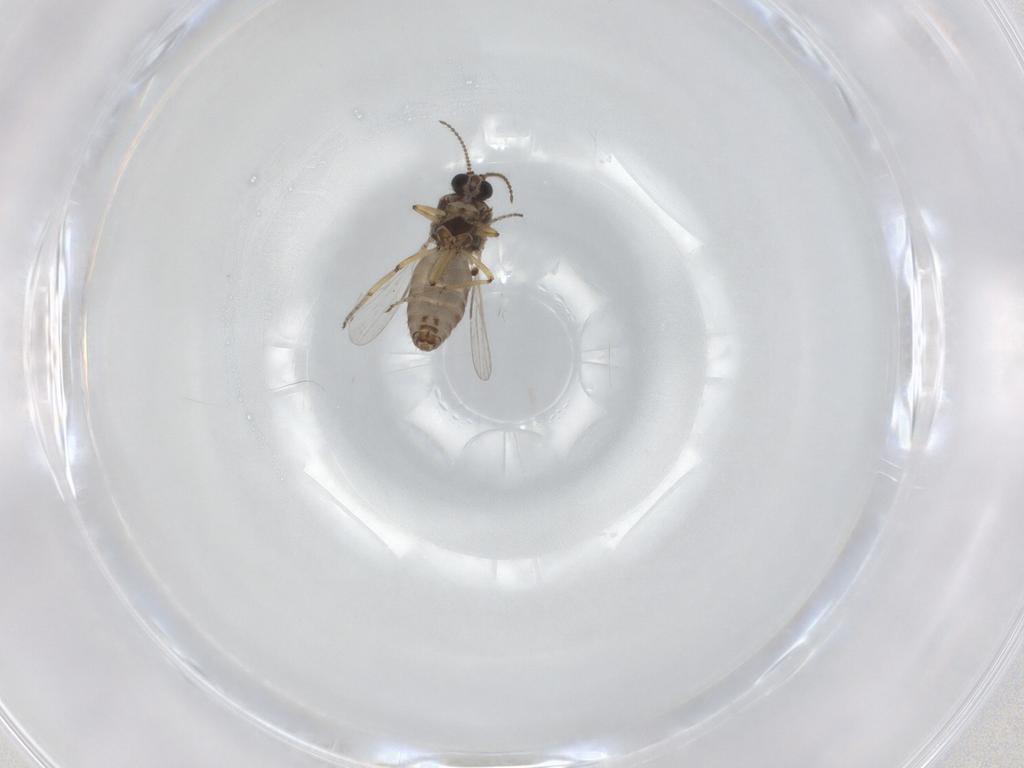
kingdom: Animalia
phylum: Arthropoda
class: Insecta
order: Diptera
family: Ceratopogonidae
